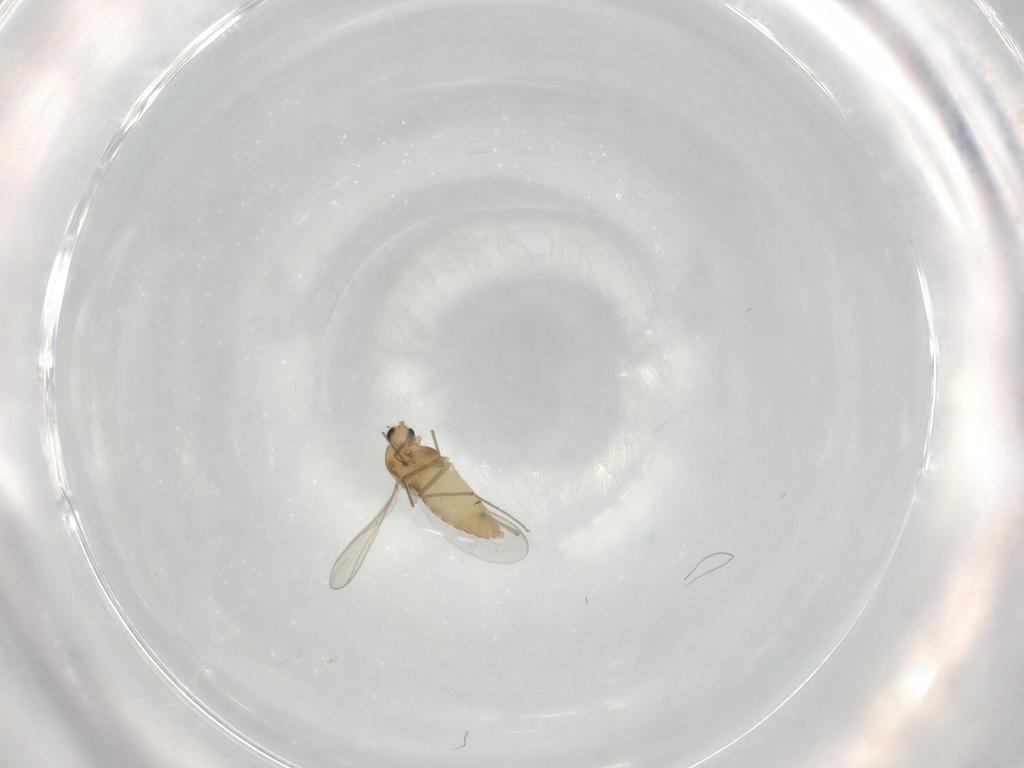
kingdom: Animalia
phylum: Arthropoda
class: Insecta
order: Diptera
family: Chironomidae
